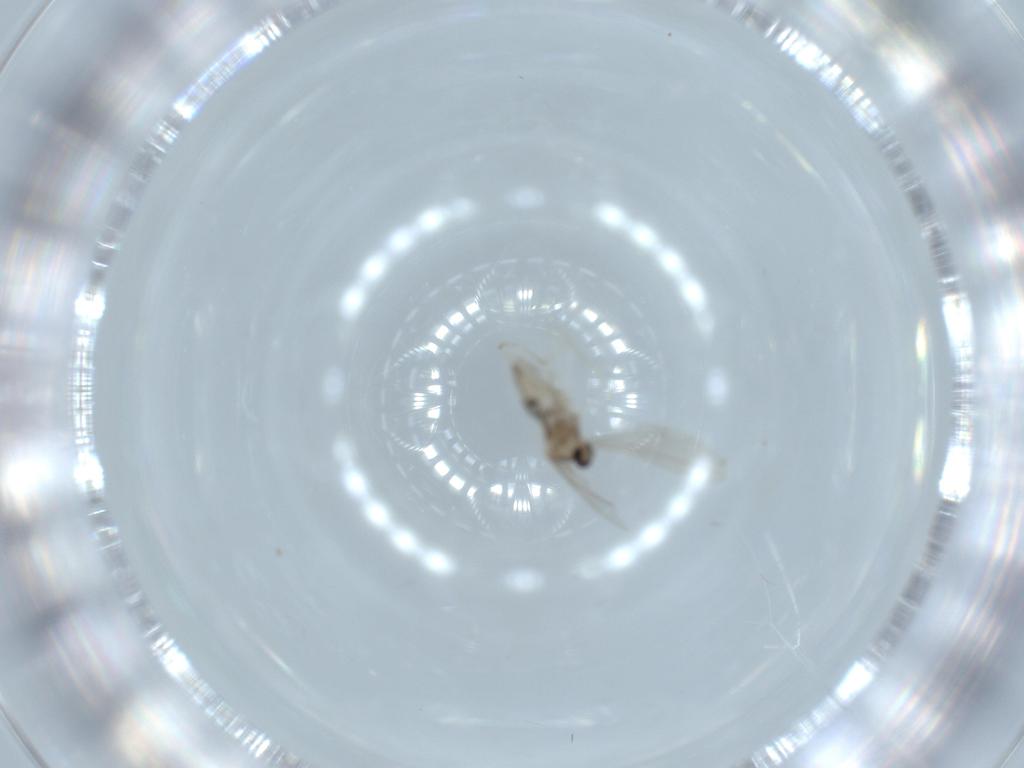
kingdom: Animalia
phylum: Arthropoda
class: Insecta
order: Diptera
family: Cecidomyiidae
